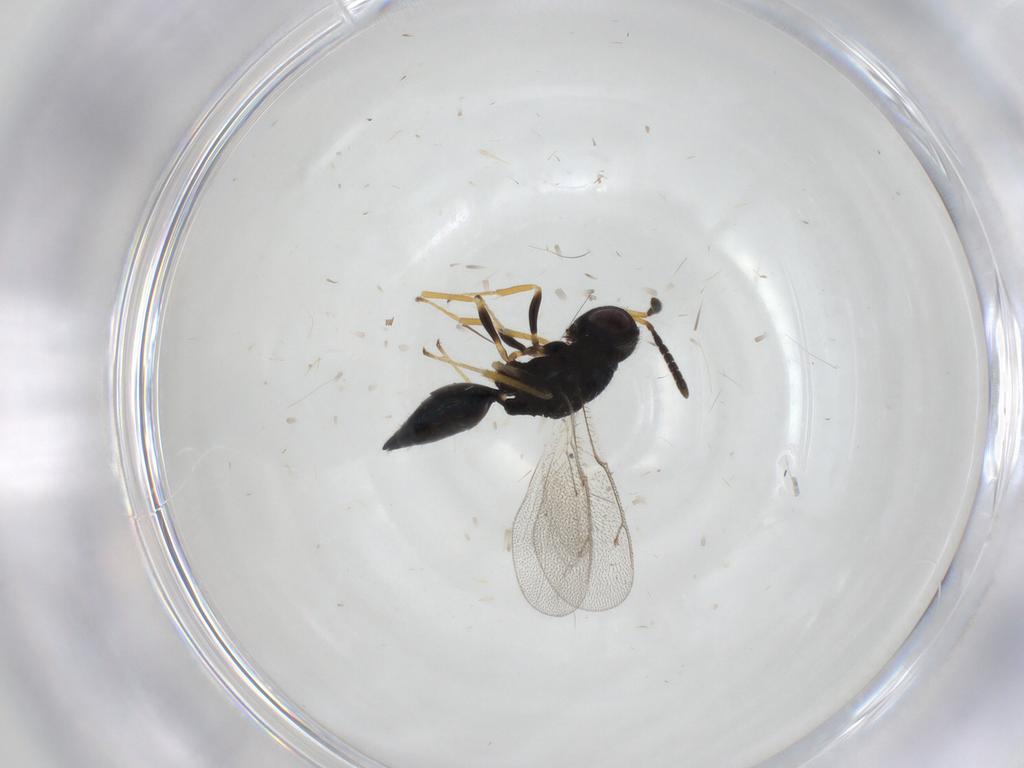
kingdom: Animalia
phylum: Arthropoda
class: Insecta
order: Hymenoptera
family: Pteromalidae
